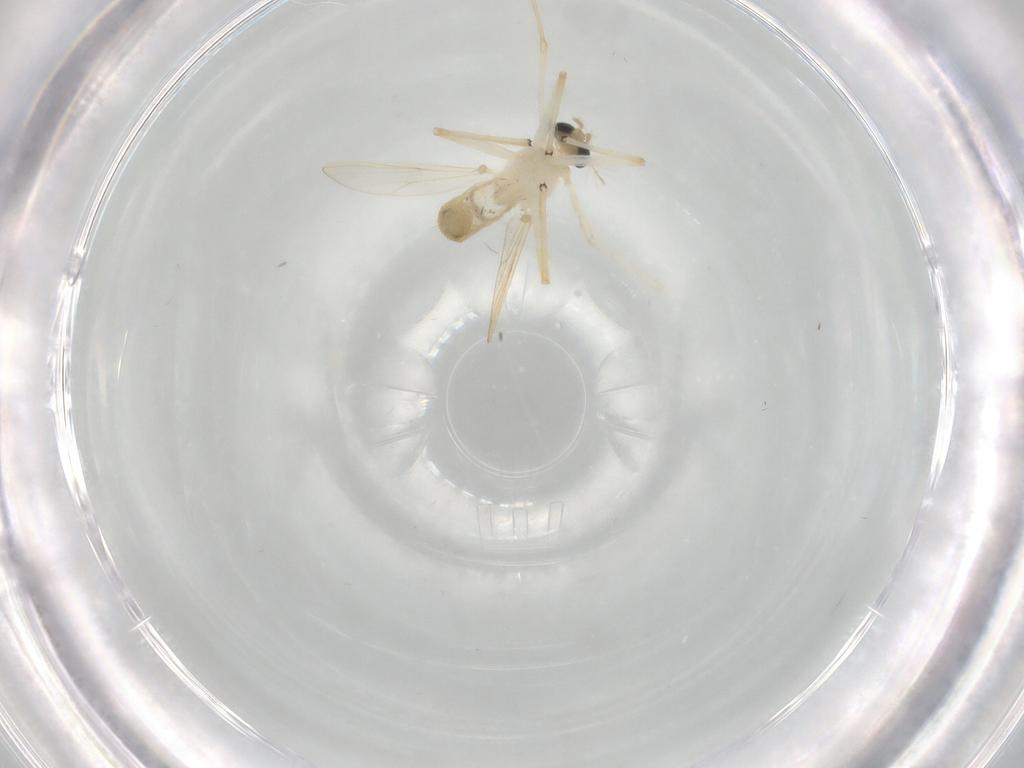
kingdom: Animalia
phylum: Arthropoda
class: Insecta
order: Diptera
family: Chironomidae
